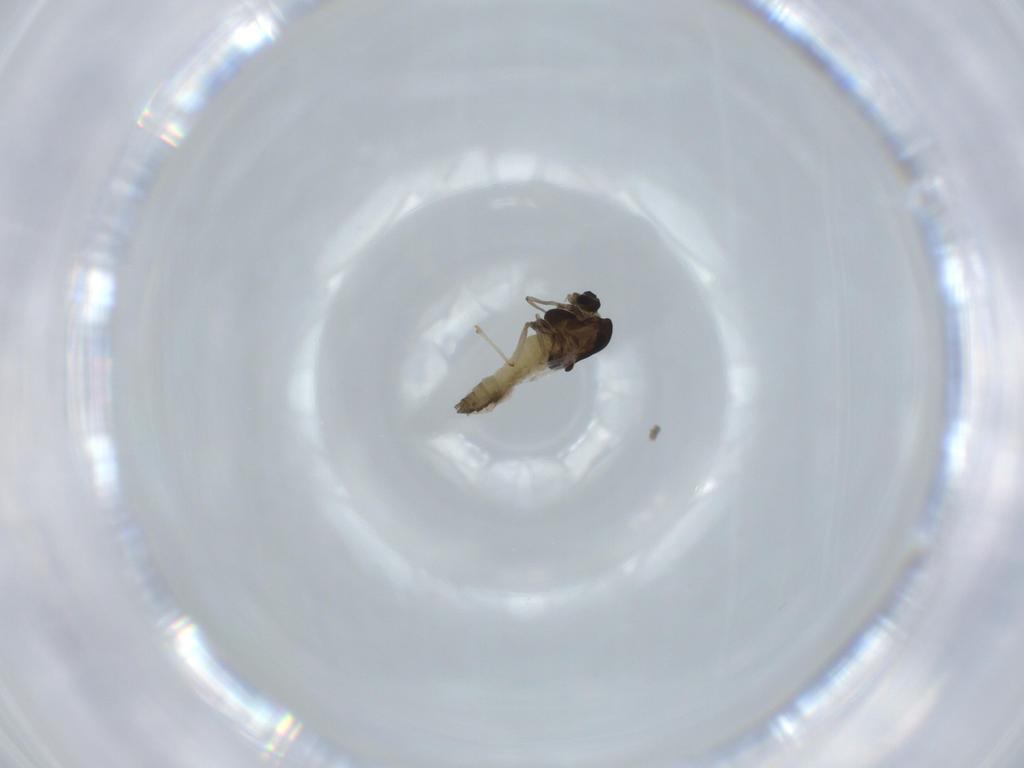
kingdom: Animalia
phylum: Arthropoda
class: Insecta
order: Diptera
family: Chironomidae
